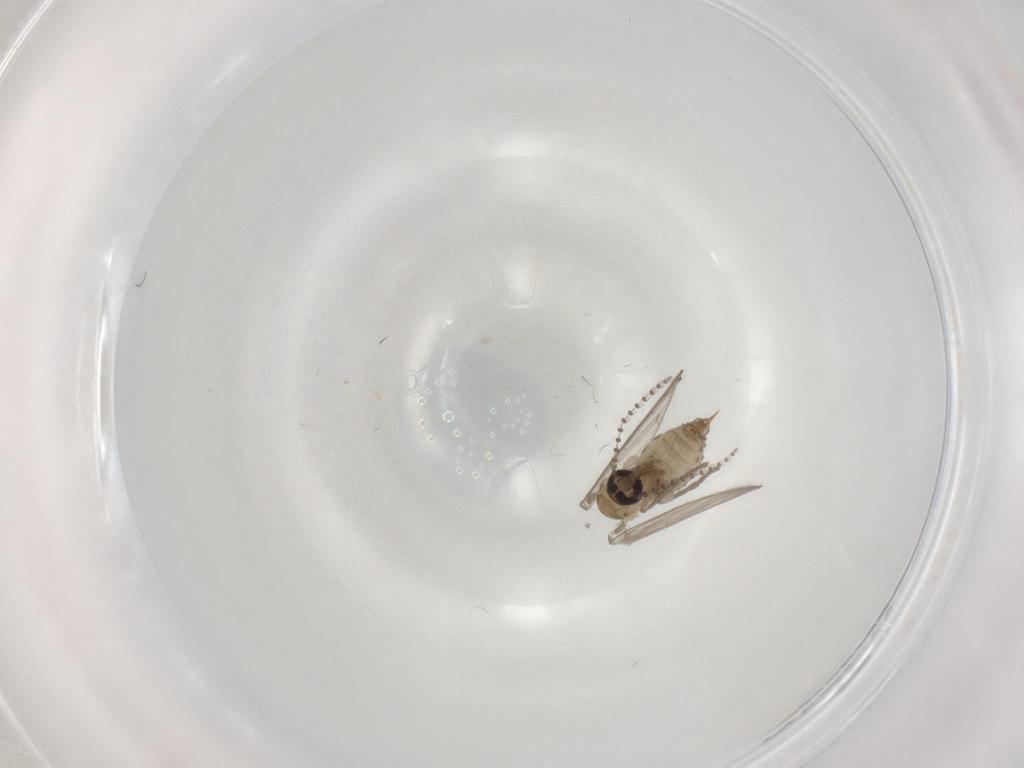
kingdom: Animalia
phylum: Arthropoda
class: Insecta
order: Diptera
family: Psychodidae
